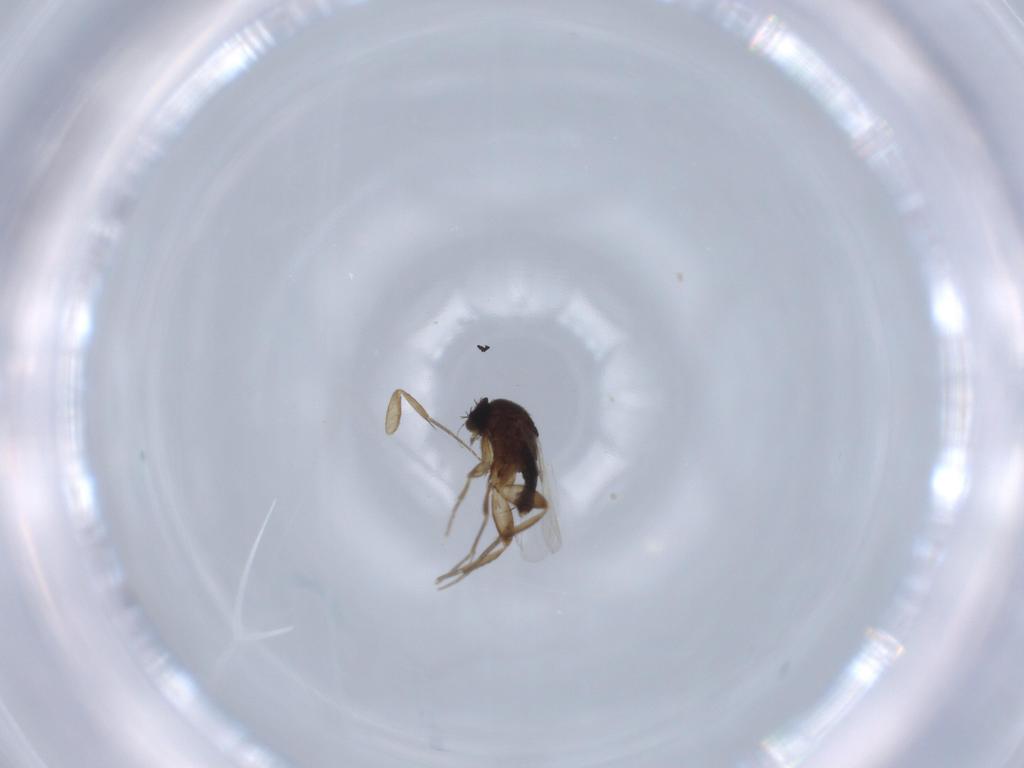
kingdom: Animalia
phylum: Arthropoda
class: Insecta
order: Diptera
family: Phoridae
